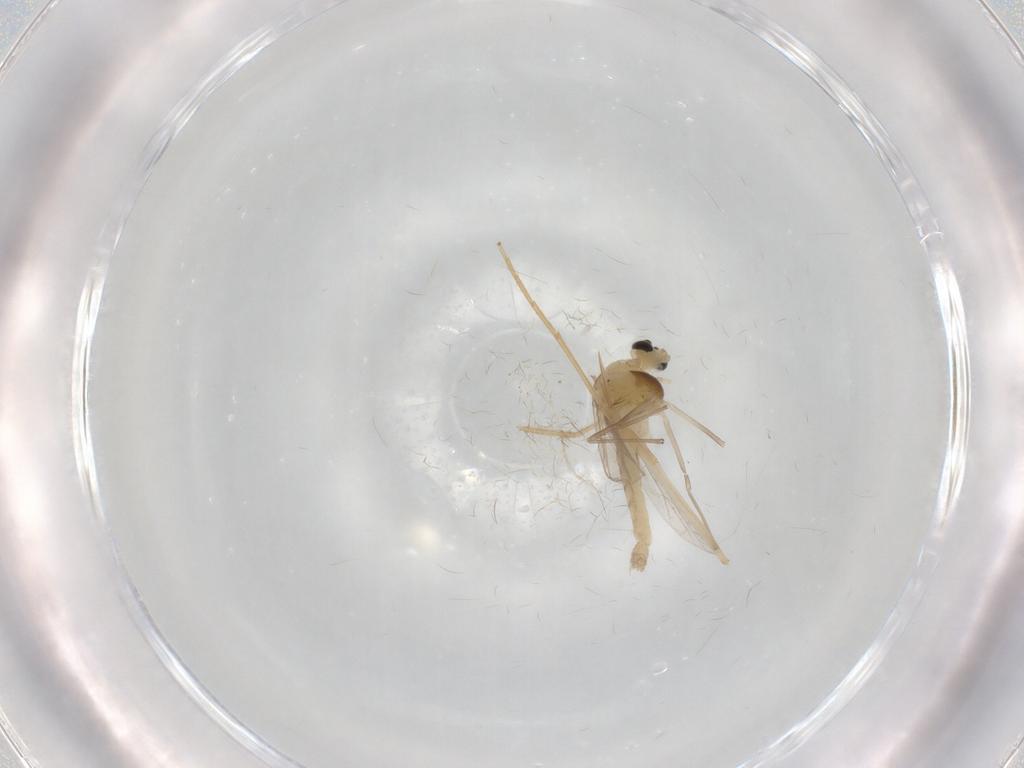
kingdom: Animalia
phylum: Arthropoda
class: Insecta
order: Diptera
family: Chironomidae
